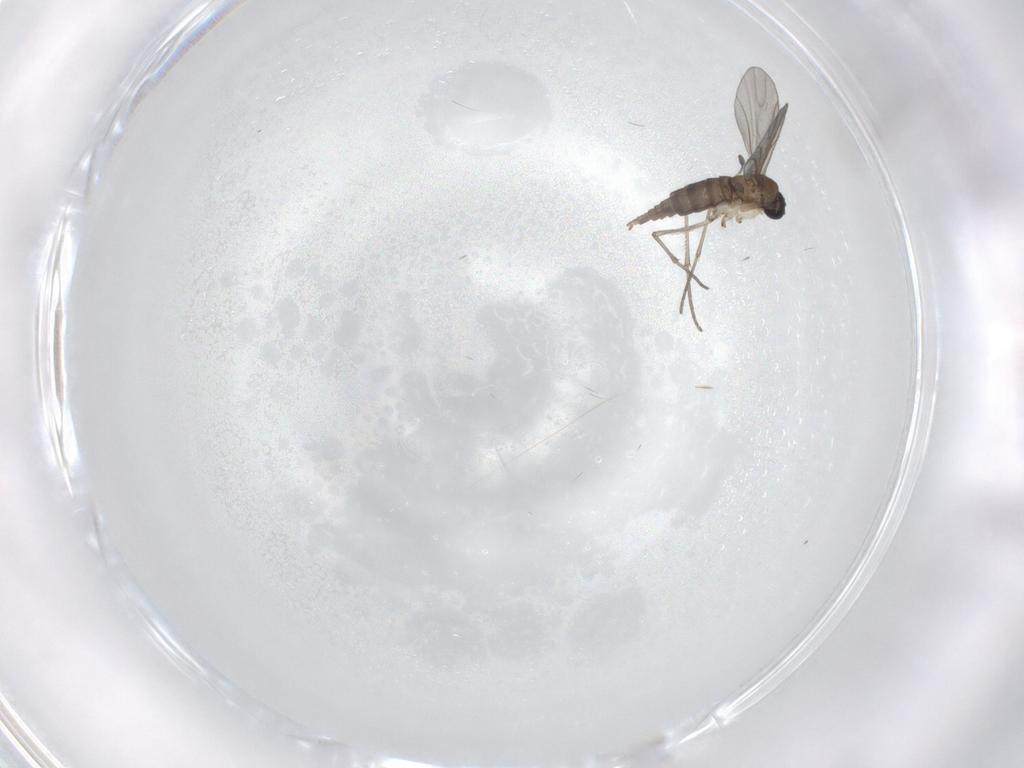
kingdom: Animalia
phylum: Arthropoda
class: Insecta
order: Diptera
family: Sciaridae
